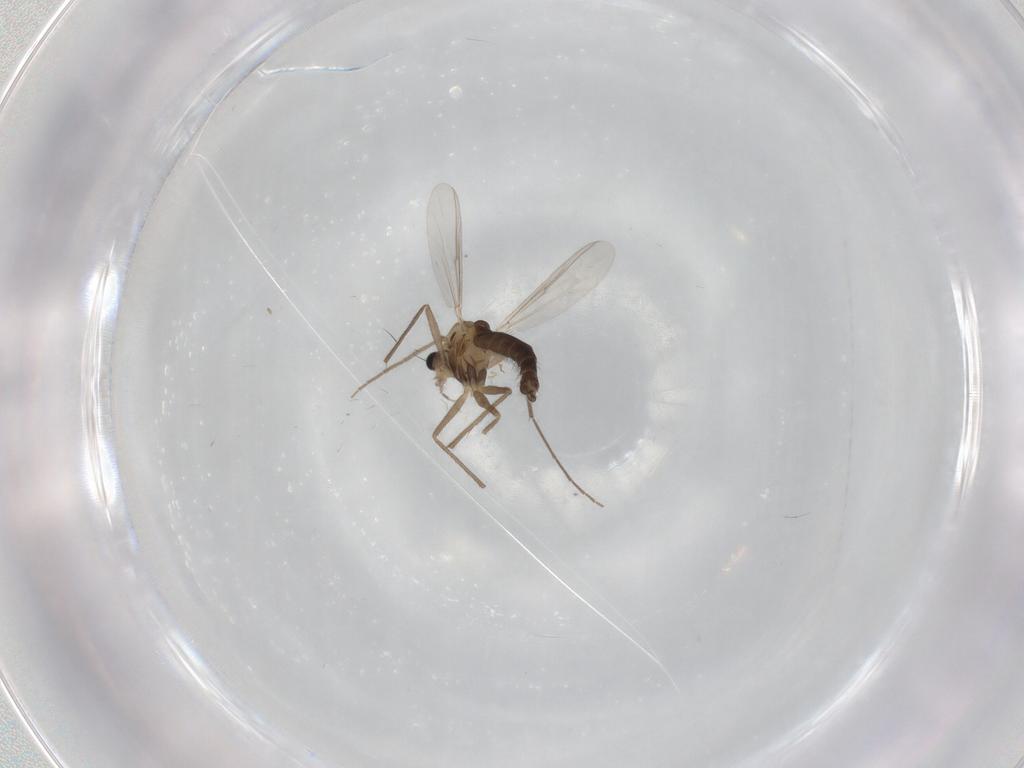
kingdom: Animalia
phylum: Arthropoda
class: Insecta
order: Diptera
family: Chironomidae
